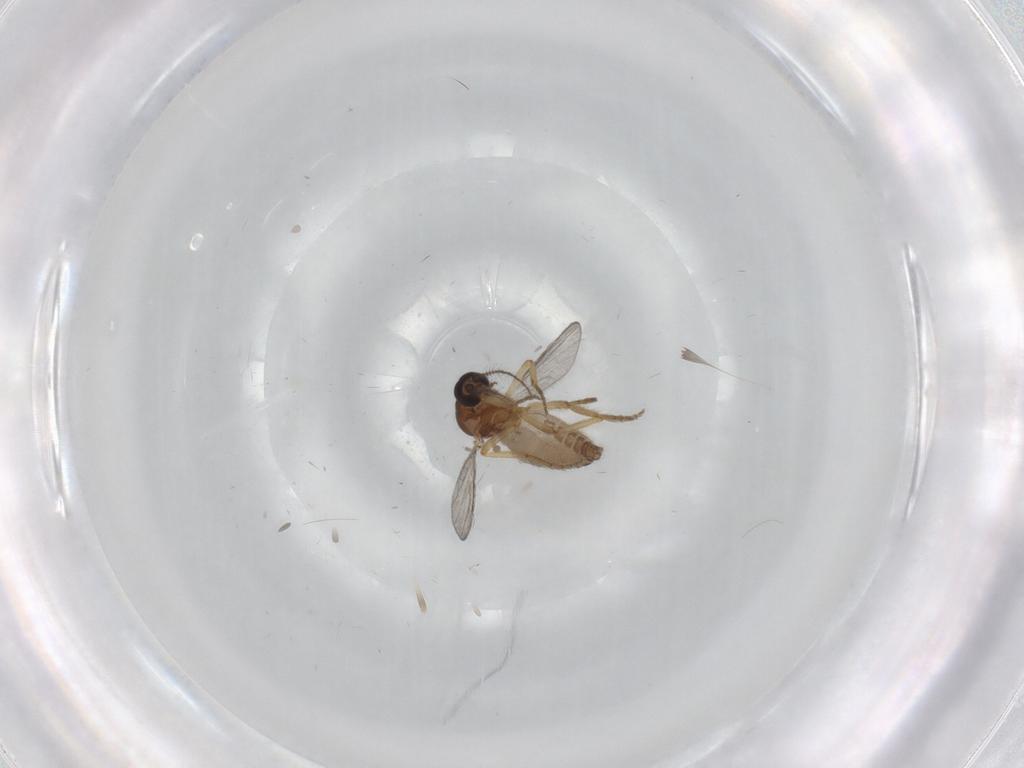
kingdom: Animalia
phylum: Arthropoda
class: Insecta
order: Diptera
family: Ceratopogonidae
